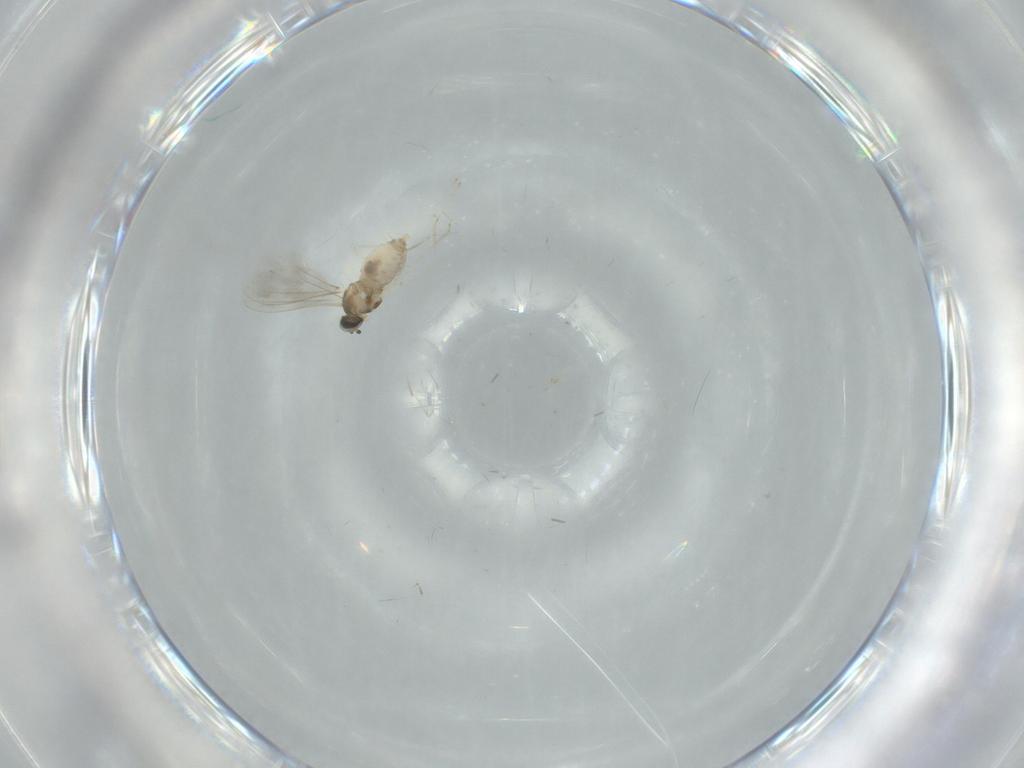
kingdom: Animalia
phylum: Arthropoda
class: Insecta
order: Diptera
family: Cecidomyiidae
